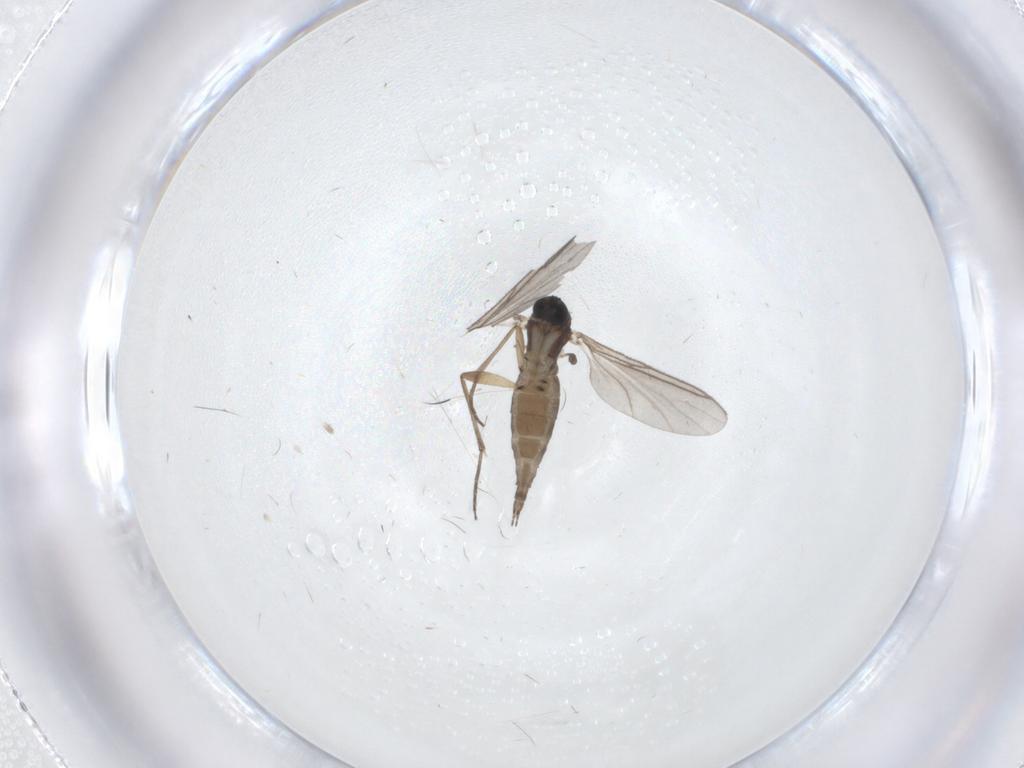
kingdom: Animalia
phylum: Arthropoda
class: Insecta
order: Diptera
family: Sciaridae
